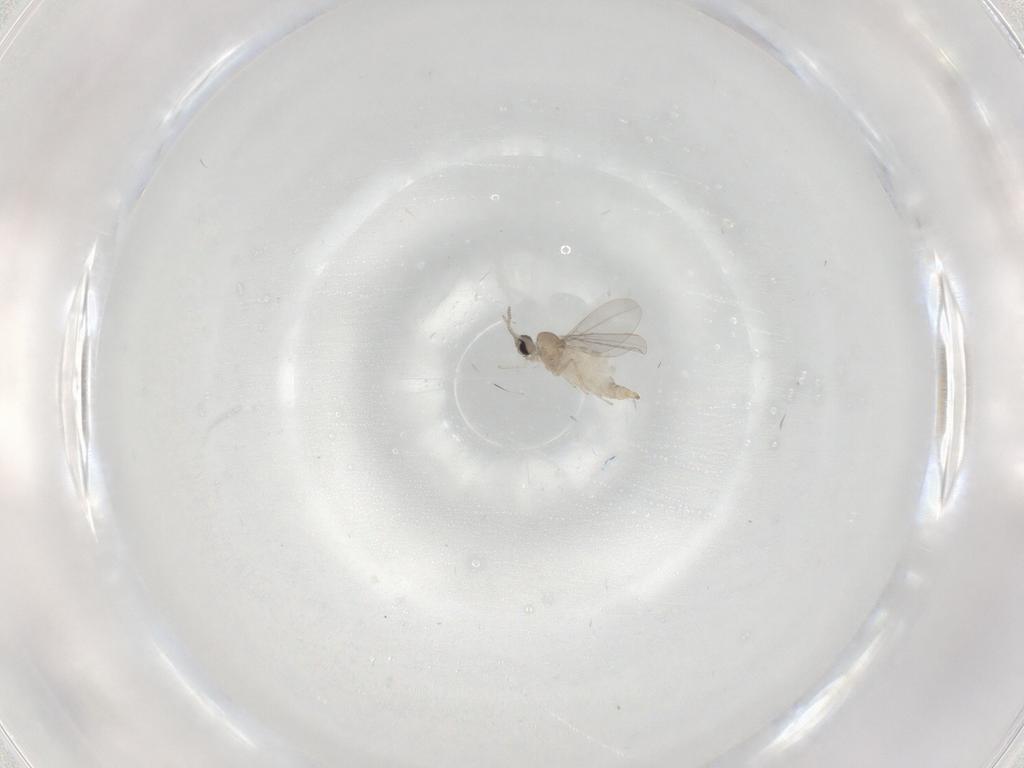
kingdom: Animalia
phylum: Arthropoda
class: Insecta
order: Diptera
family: Cecidomyiidae
